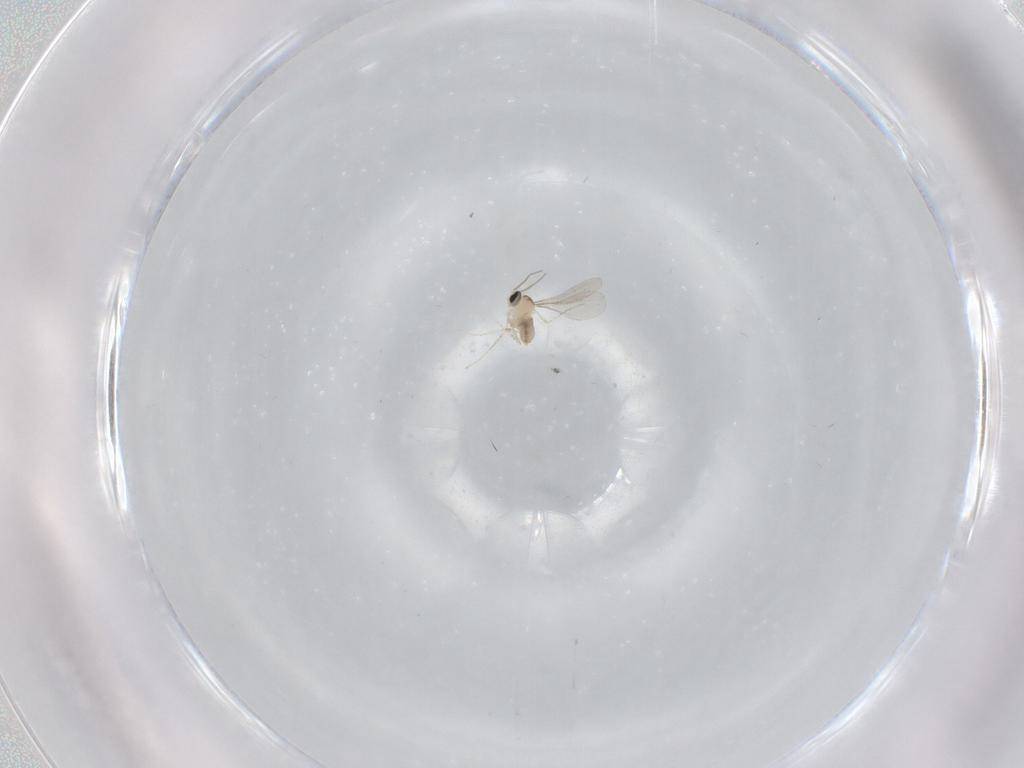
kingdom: Animalia
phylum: Arthropoda
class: Insecta
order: Diptera
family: Chironomidae
